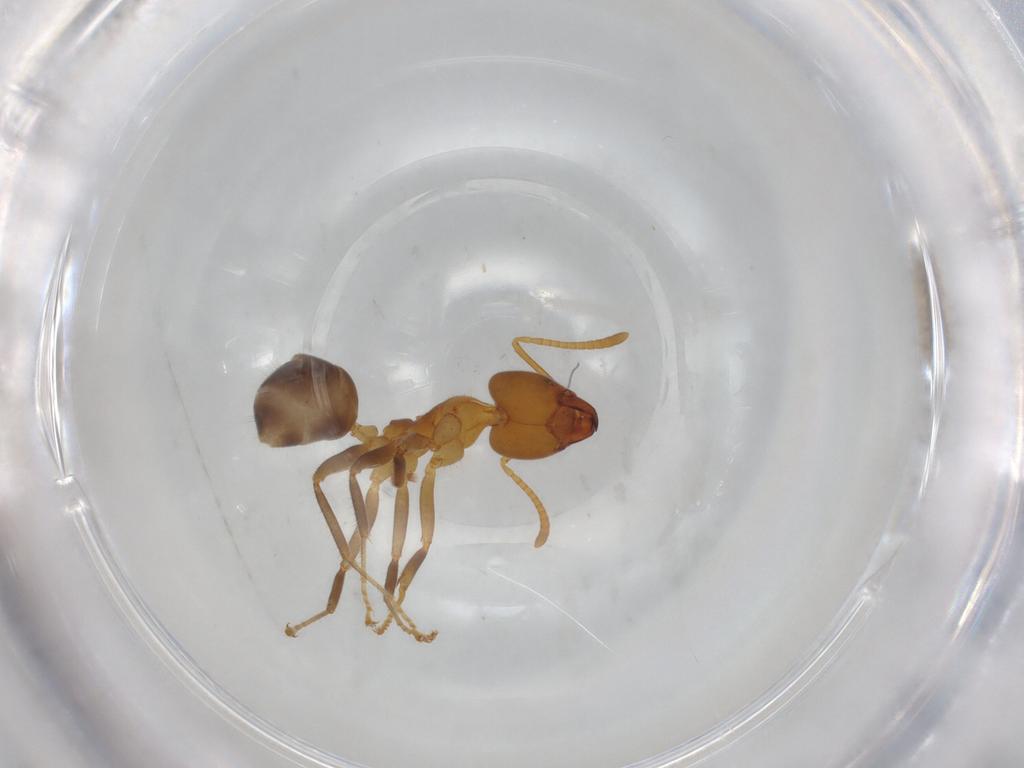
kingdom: Animalia
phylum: Arthropoda
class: Insecta
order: Hymenoptera
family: Formicidae
